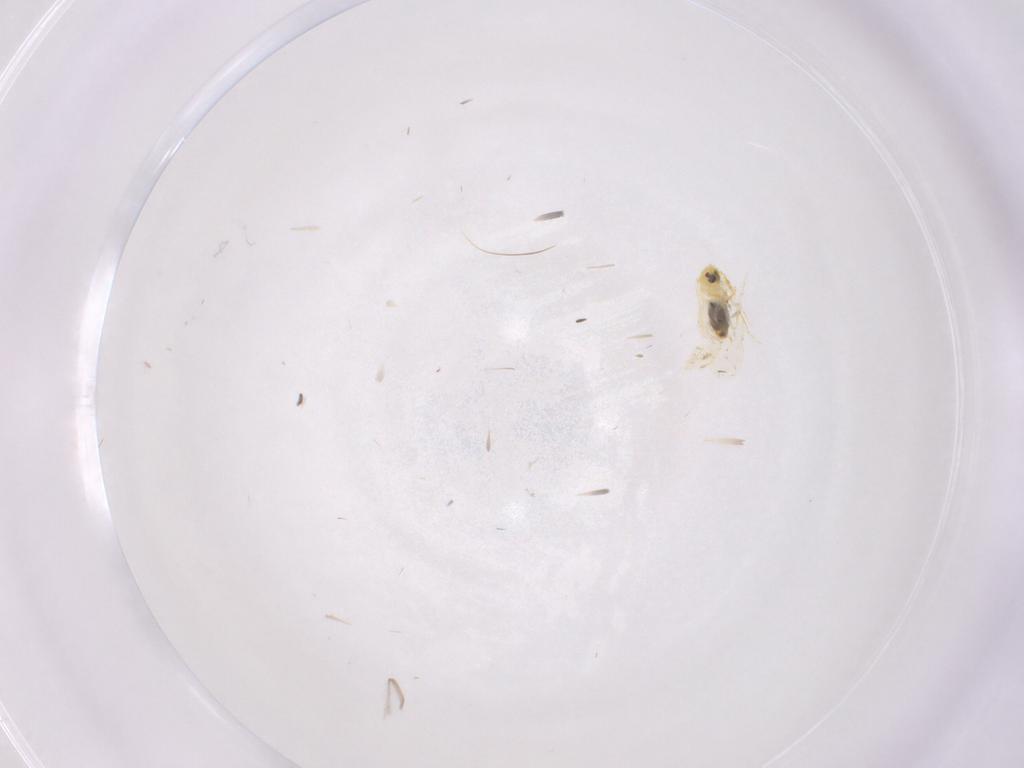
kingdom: Animalia
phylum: Arthropoda
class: Insecta
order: Hemiptera
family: Aleyrodidae
